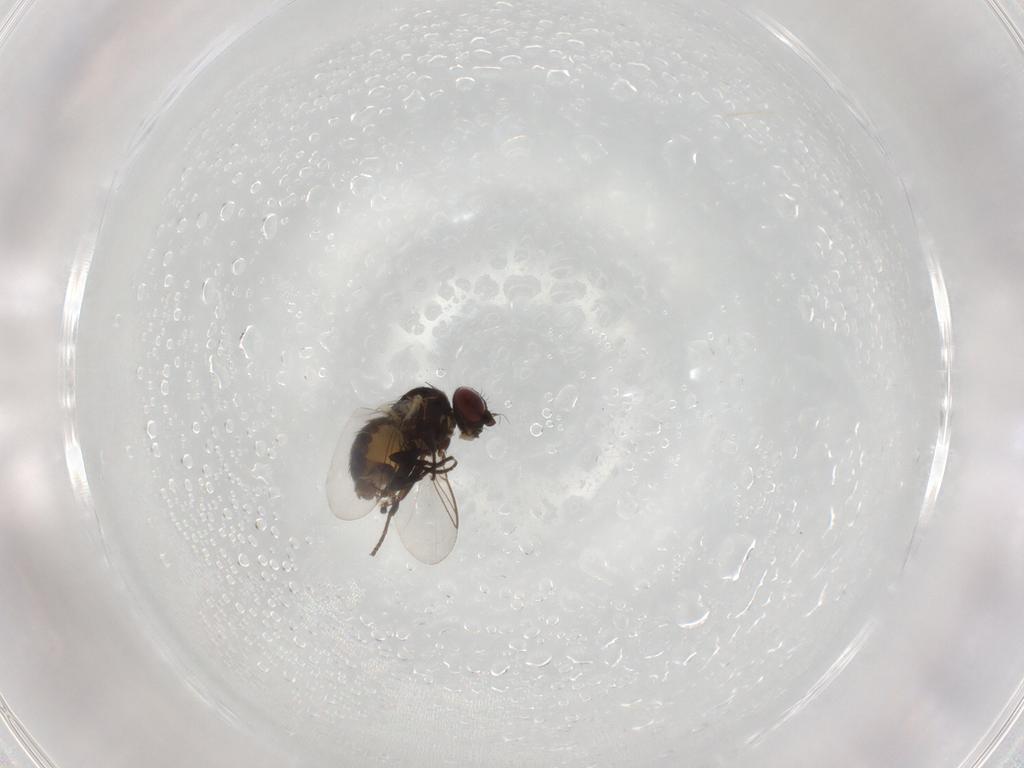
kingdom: Animalia
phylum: Arthropoda
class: Insecta
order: Diptera
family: Agromyzidae
